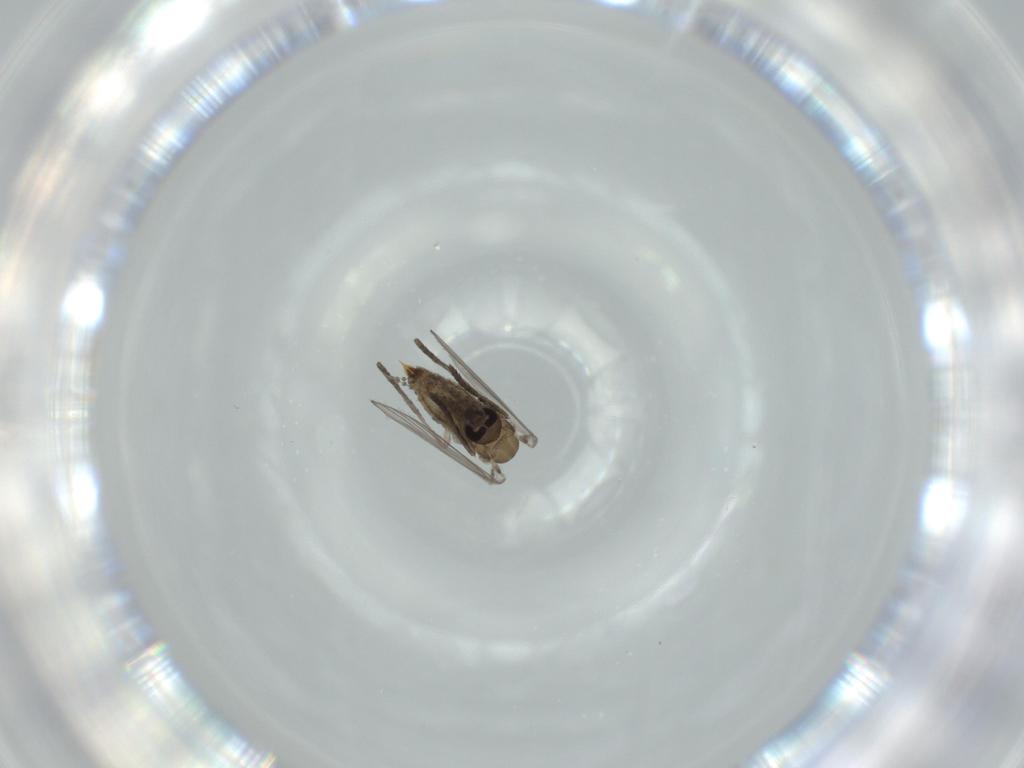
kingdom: Animalia
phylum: Arthropoda
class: Insecta
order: Diptera
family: Psychodidae
